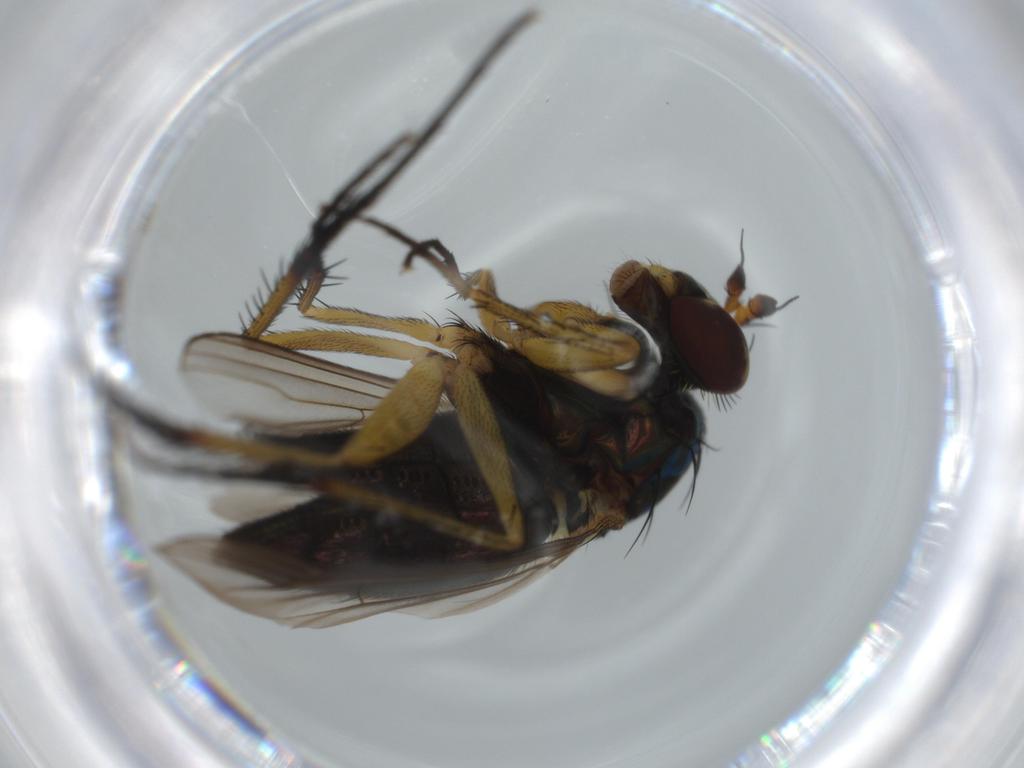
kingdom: Animalia
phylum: Arthropoda
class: Insecta
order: Diptera
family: Dolichopodidae
